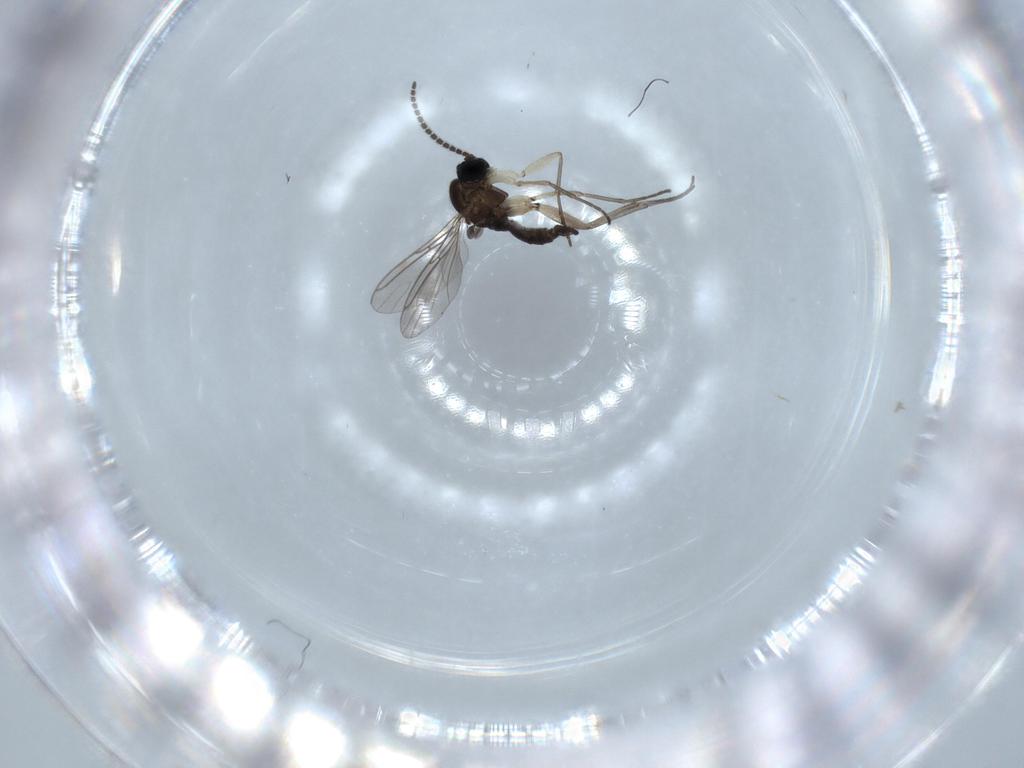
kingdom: Animalia
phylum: Arthropoda
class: Insecta
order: Diptera
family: Sciaridae
